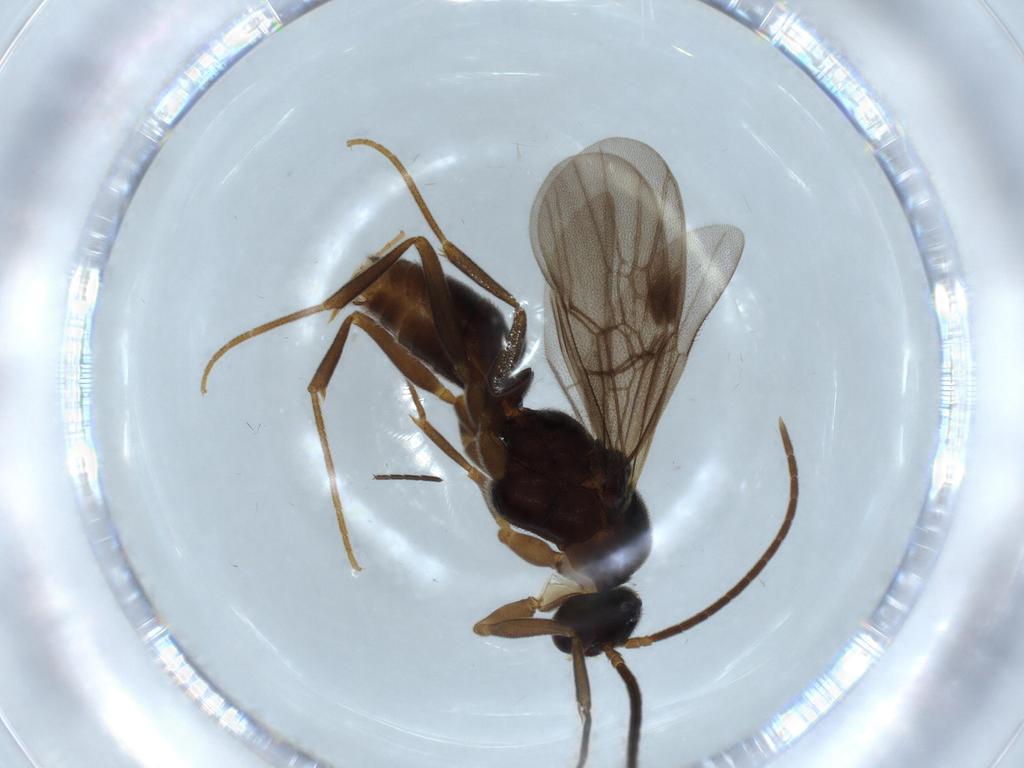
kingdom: Animalia
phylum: Arthropoda
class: Insecta
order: Hymenoptera
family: Formicidae
